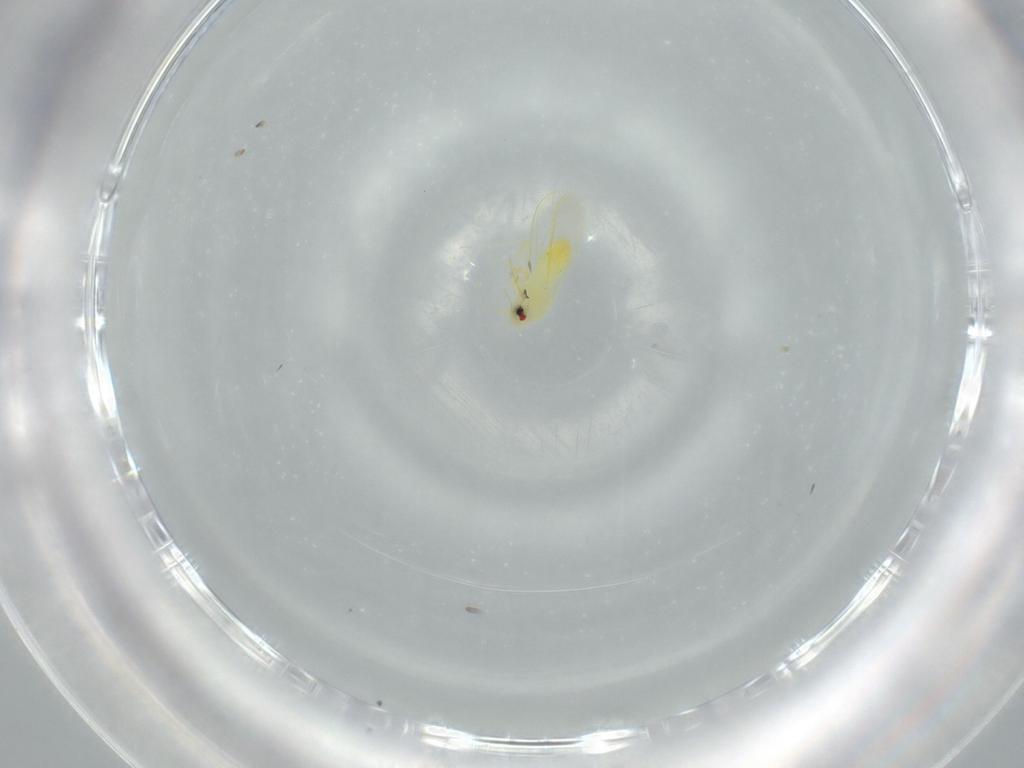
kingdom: Animalia
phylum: Arthropoda
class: Insecta
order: Hemiptera
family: Aleyrodidae
